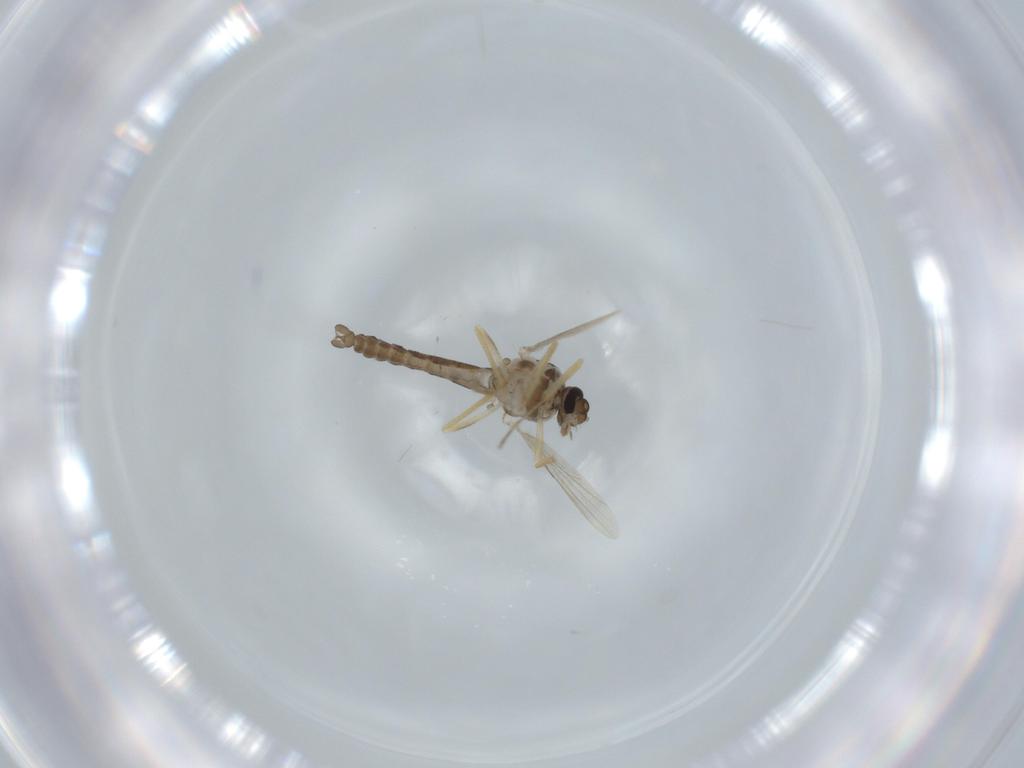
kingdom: Animalia
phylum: Arthropoda
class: Insecta
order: Diptera
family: Ceratopogonidae
